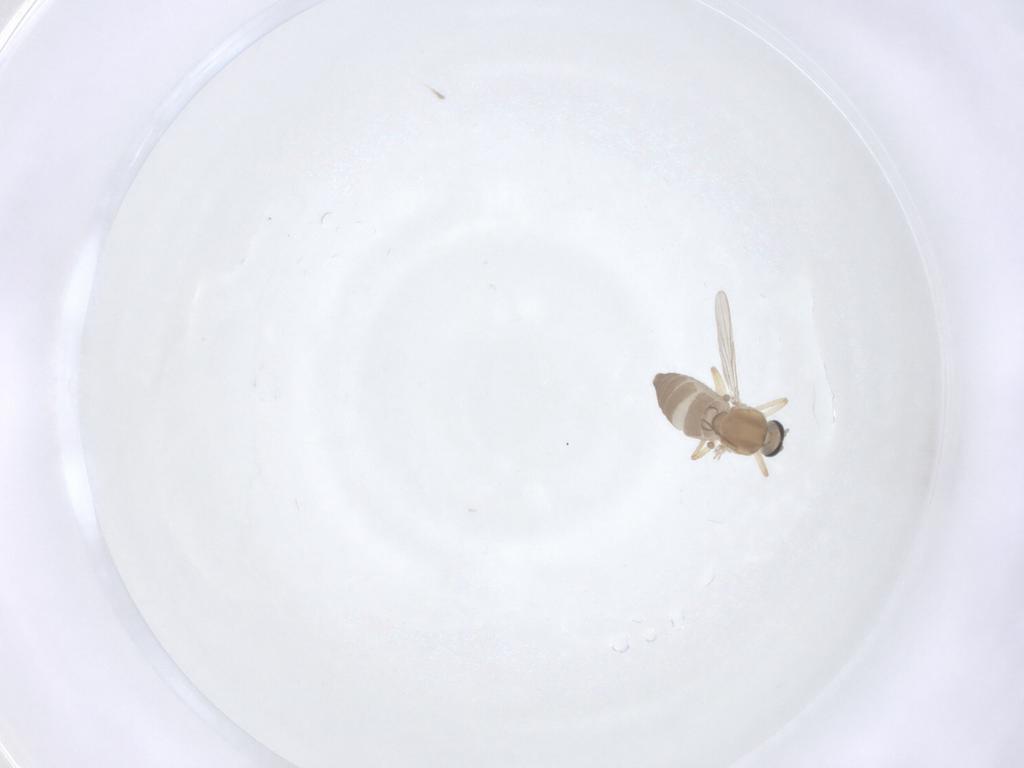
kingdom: Animalia
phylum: Arthropoda
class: Insecta
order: Diptera
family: Ceratopogonidae
